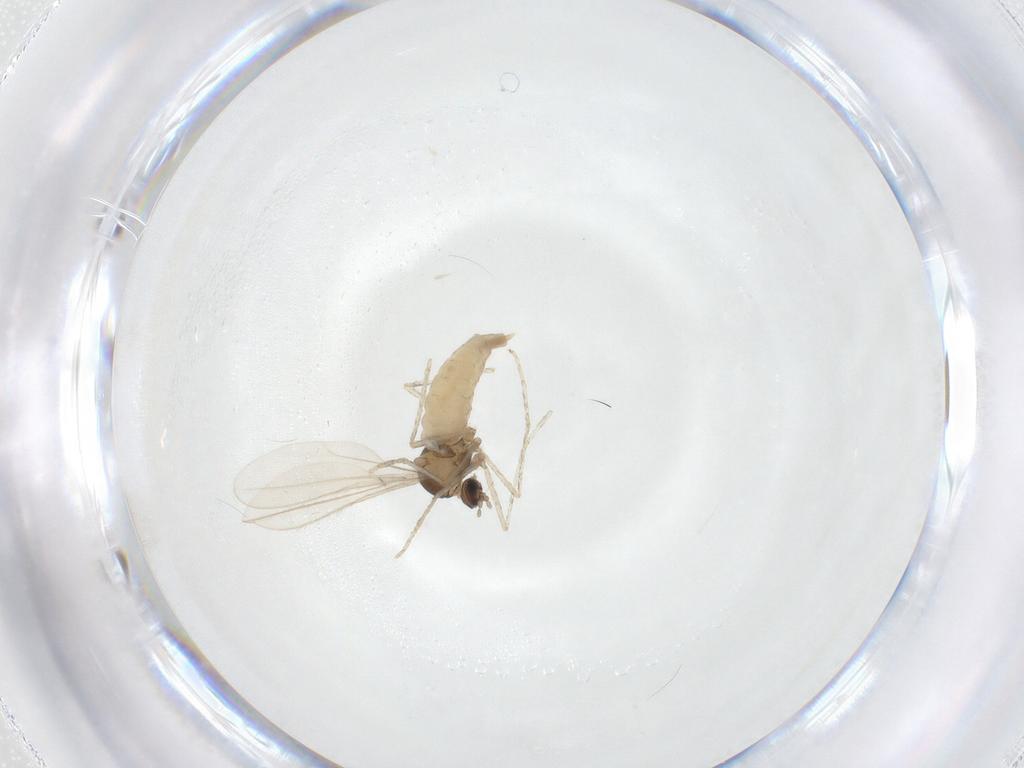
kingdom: Animalia
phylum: Arthropoda
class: Insecta
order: Diptera
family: Cecidomyiidae
